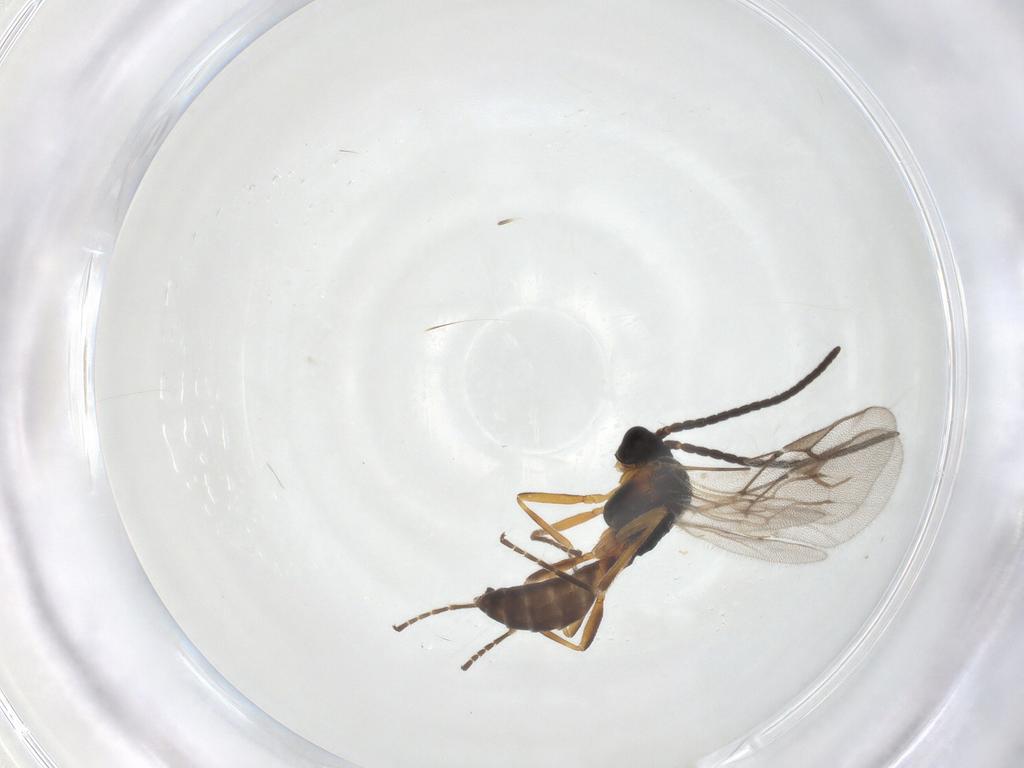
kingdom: Animalia
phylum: Arthropoda
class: Insecta
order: Hymenoptera
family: Braconidae
